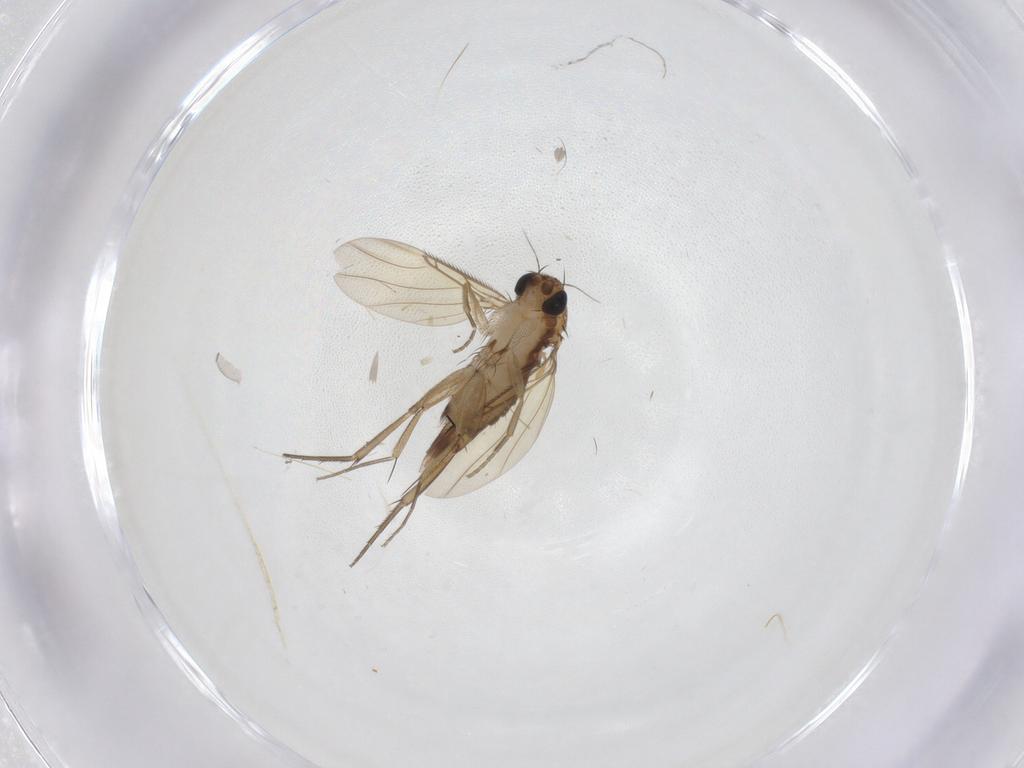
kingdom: Animalia
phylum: Arthropoda
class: Insecta
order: Diptera
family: Phoridae
